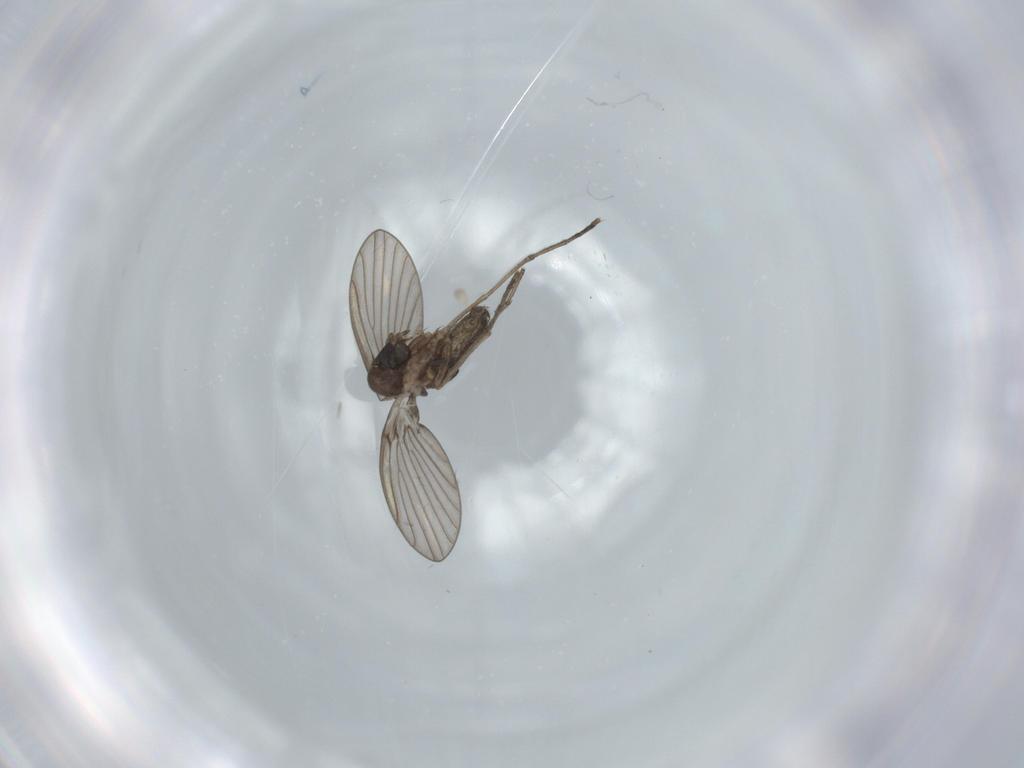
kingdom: Animalia
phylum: Arthropoda
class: Insecta
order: Diptera
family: Psychodidae
